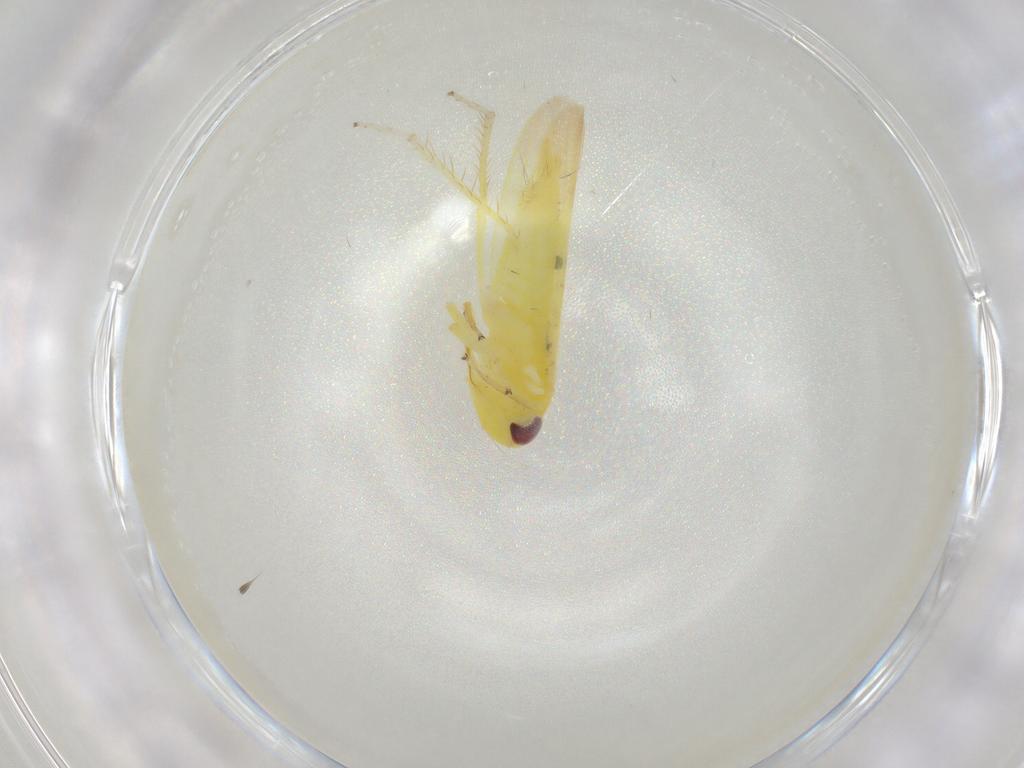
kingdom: Animalia
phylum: Arthropoda
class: Insecta
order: Hemiptera
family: Cicadellidae
